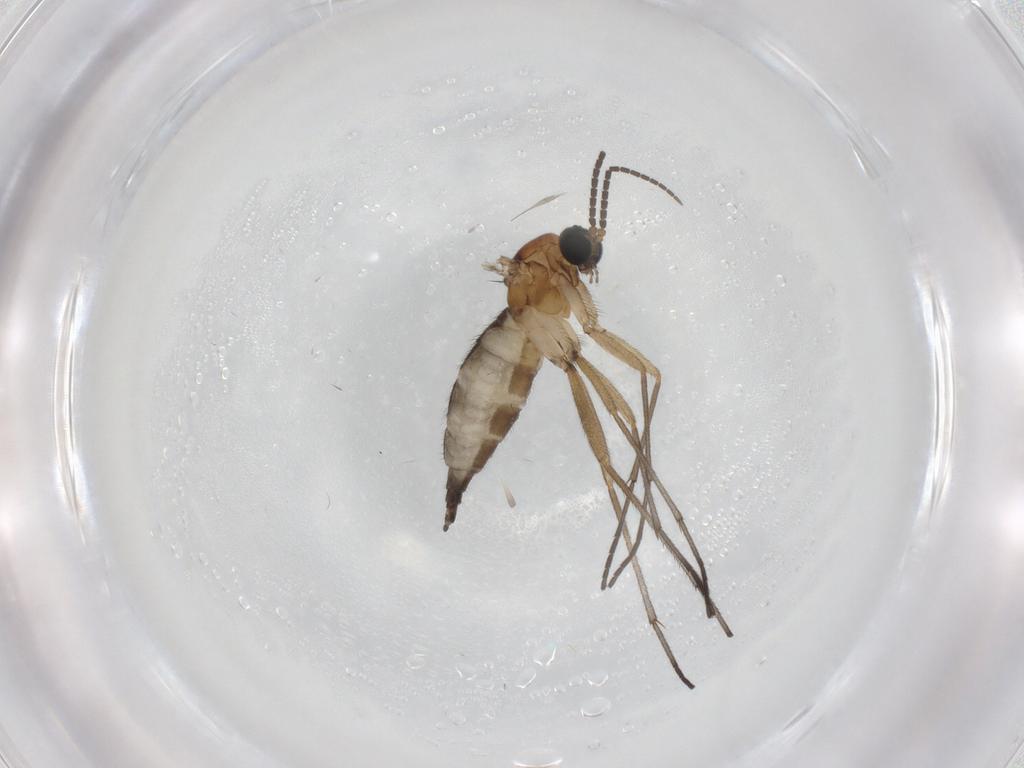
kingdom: Animalia
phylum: Arthropoda
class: Insecta
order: Diptera
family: Sciaridae
